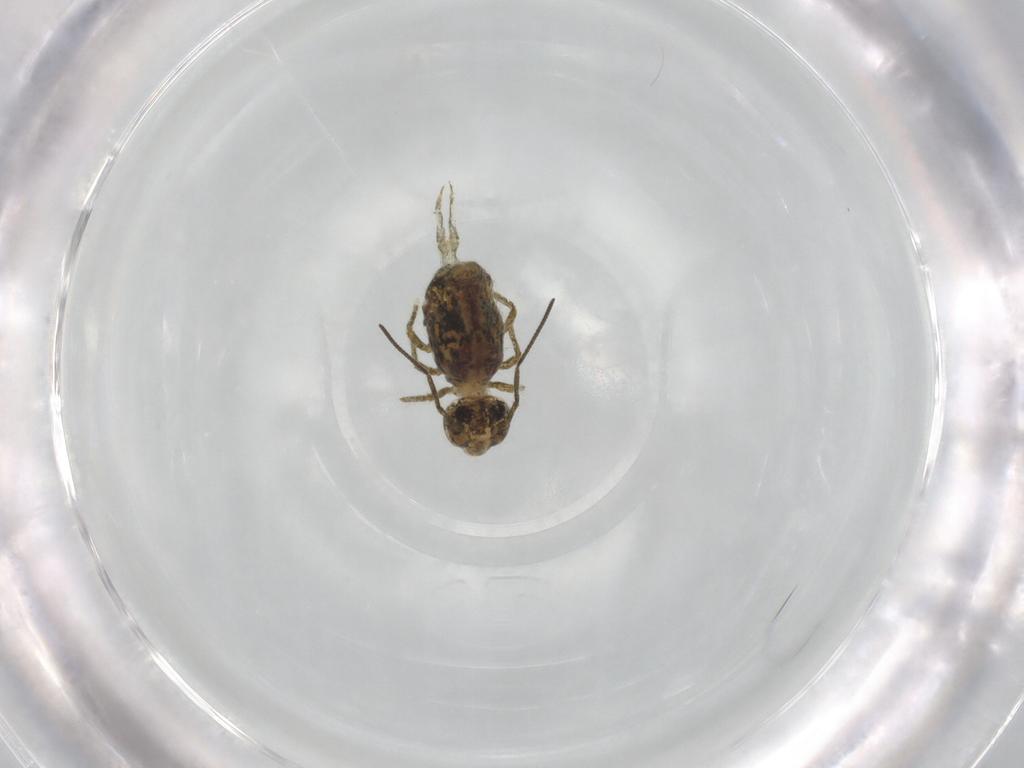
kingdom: Animalia
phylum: Arthropoda
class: Collembola
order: Symphypleona
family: Sminthuridae
